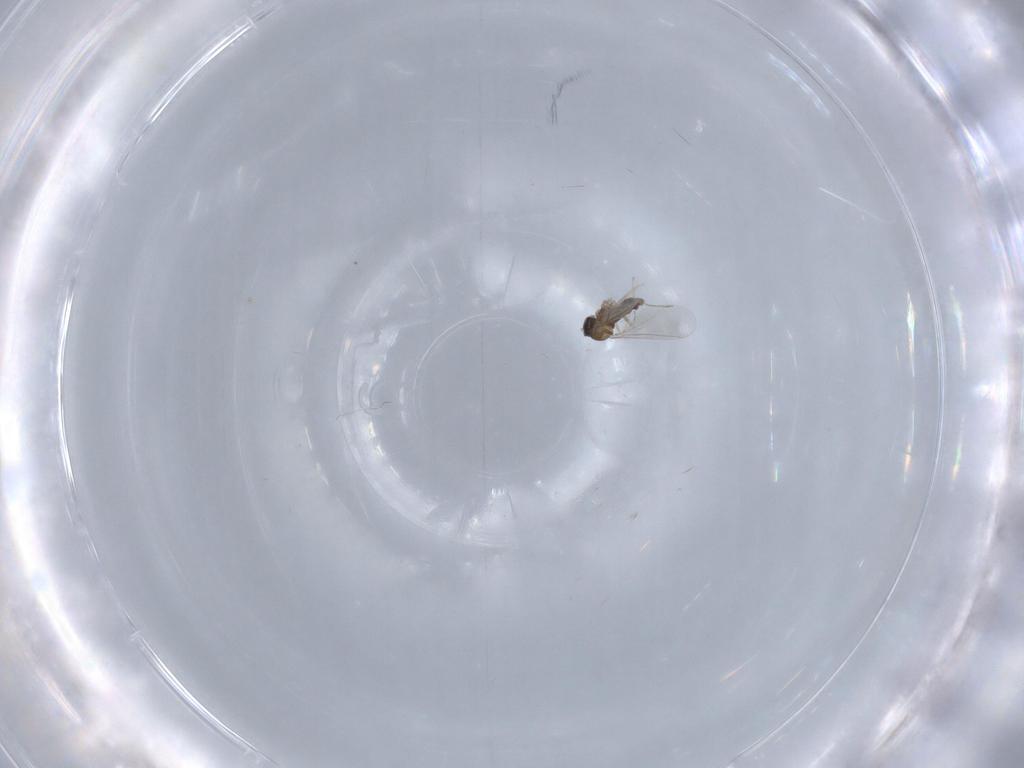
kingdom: Animalia
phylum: Arthropoda
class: Insecta
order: Diptera
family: Cecidomyiidae
